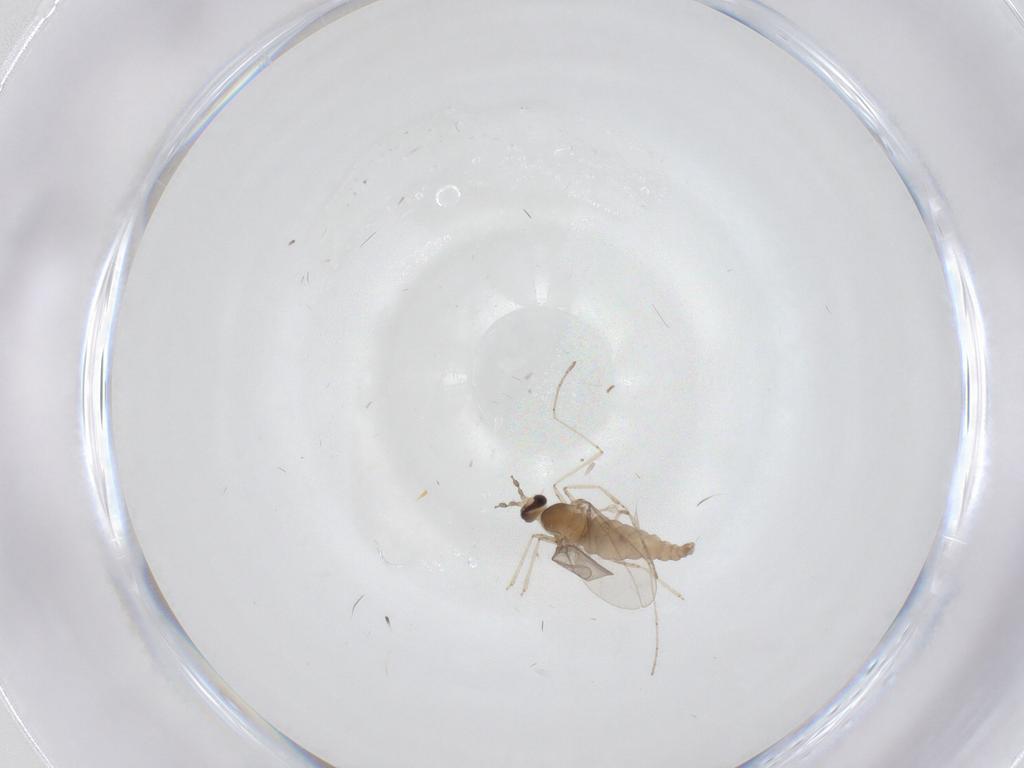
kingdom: Animalia
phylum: Arthropoda
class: Insecta
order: Diptera
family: Cecidomyiidae
